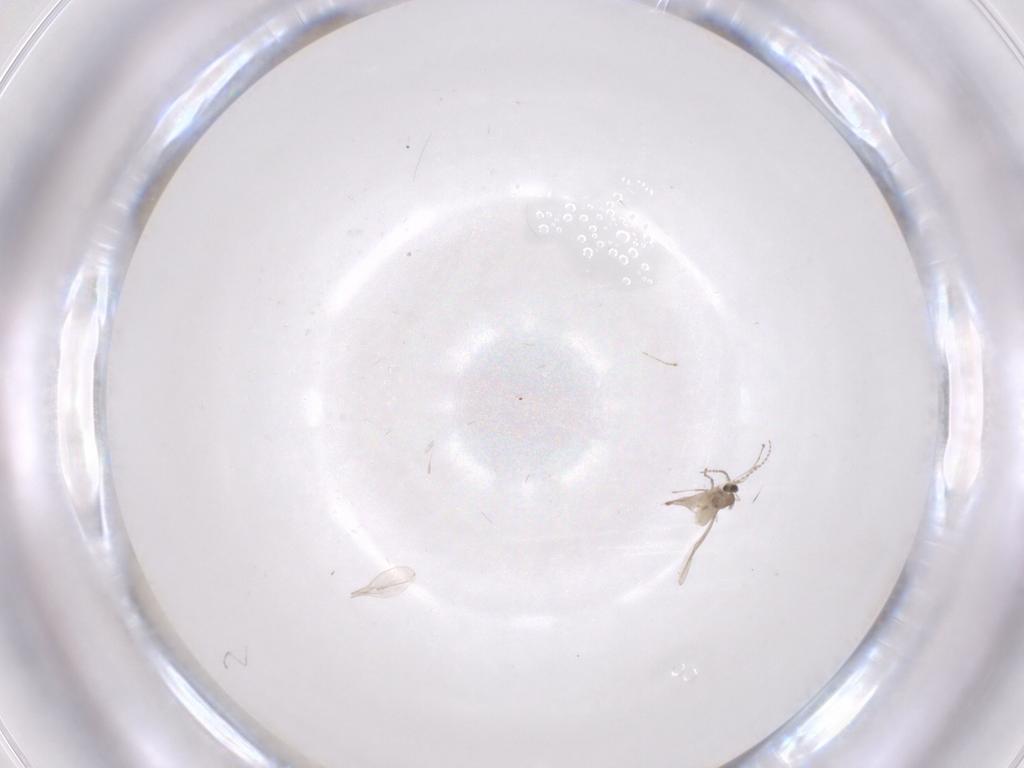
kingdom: Animalia
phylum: Arthropoda
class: Insecta
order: Diptera
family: Cecidomyiidae
